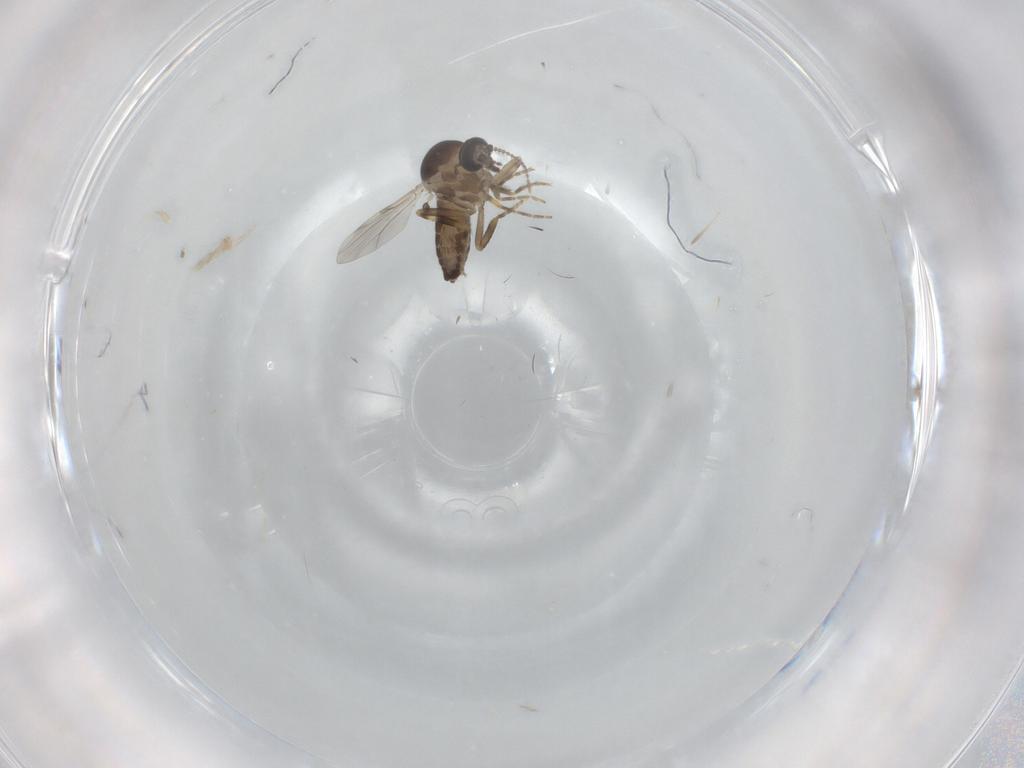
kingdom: Animalia
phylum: Arthropoda
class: Insecta
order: Diptera
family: Ceratopogonidae
